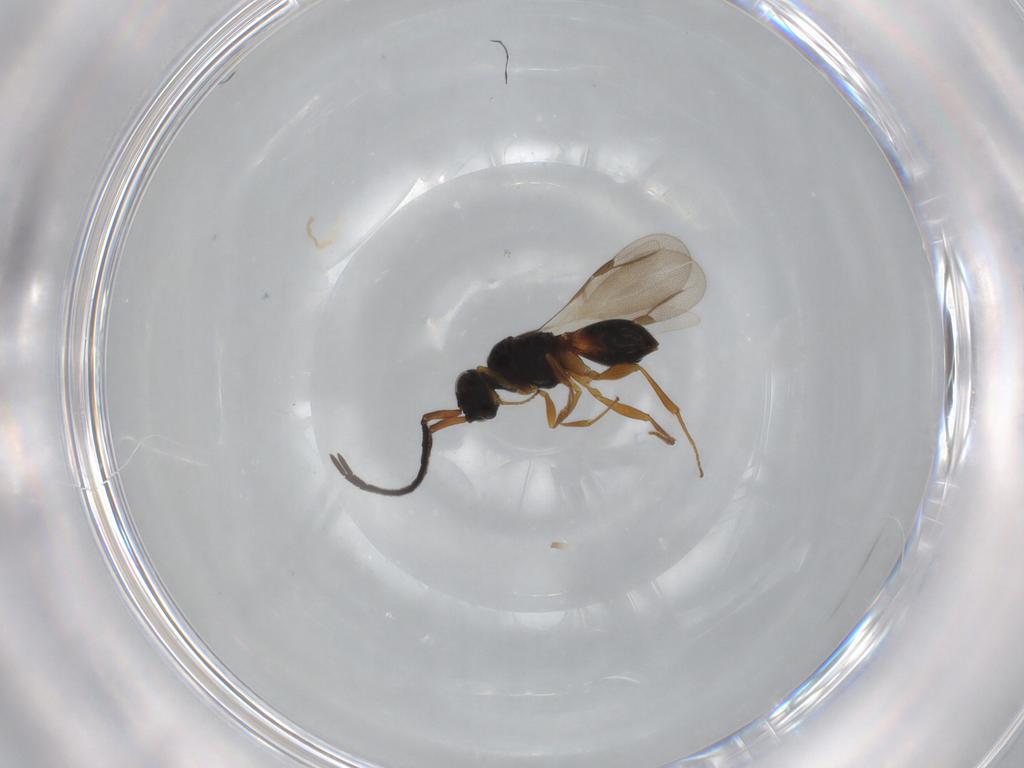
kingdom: Animalia
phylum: Arthropoda
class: Insecta
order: Hymenoptera
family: Megaspilidae
